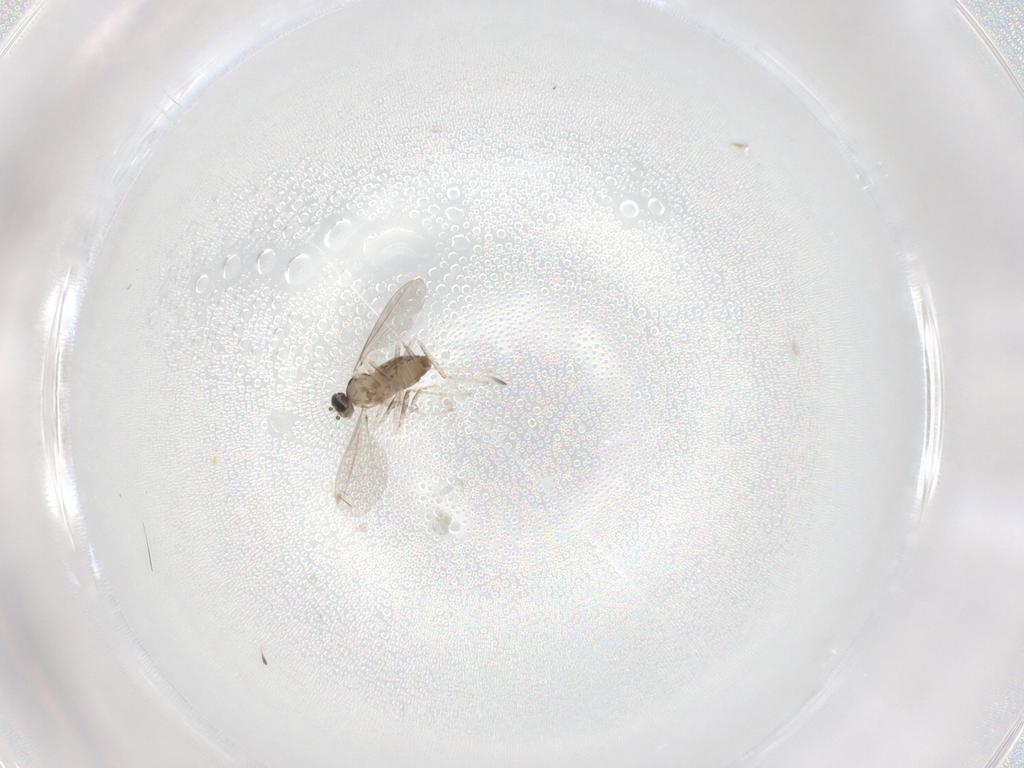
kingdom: Animalia
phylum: Arthropoda
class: Insecta
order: Diptera
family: Cecidomyiidae
